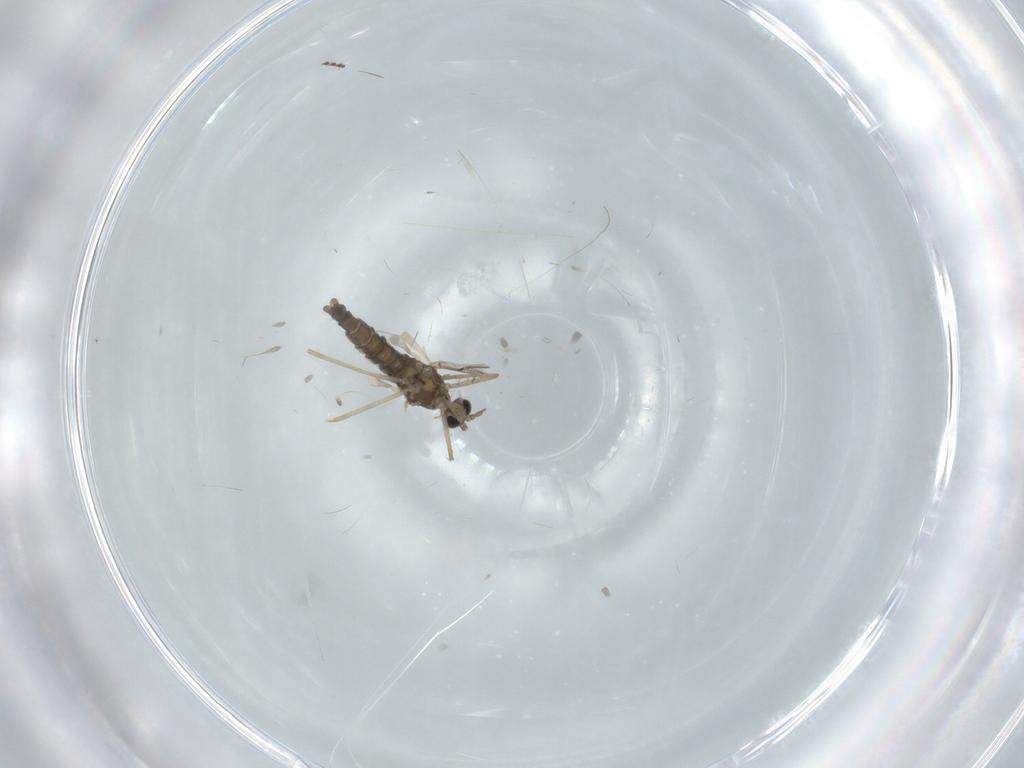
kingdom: Animalia
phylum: Arthropoda
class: Insecta
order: Diptera
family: Cecidomyiidae
